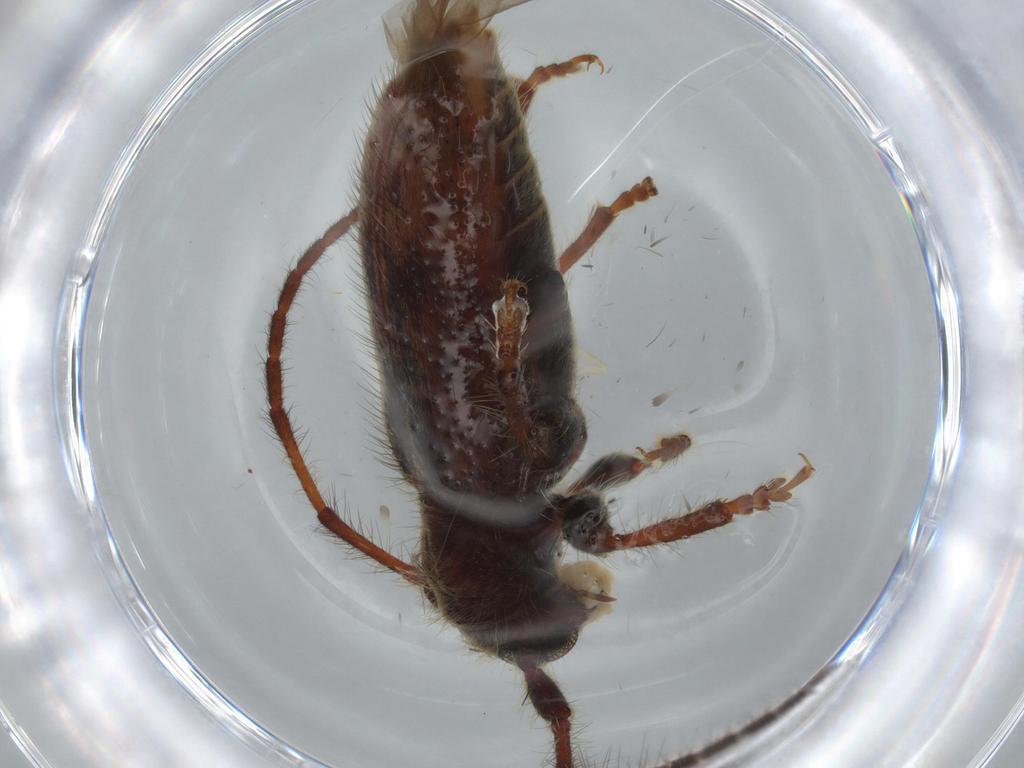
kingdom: Animalia
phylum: Arthropoda
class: Insecta
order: Coleoptera
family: Cerambycidae
